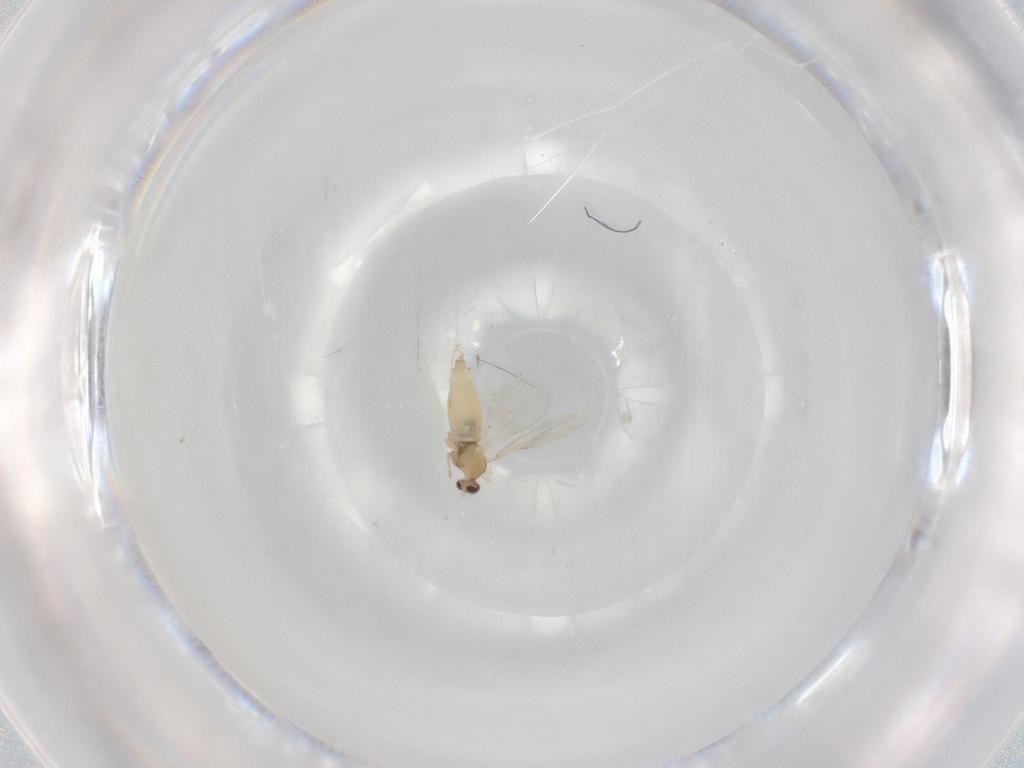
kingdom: Animalia
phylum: Arthropoda
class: Insecta
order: Diptera
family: Cecidomyiidae
